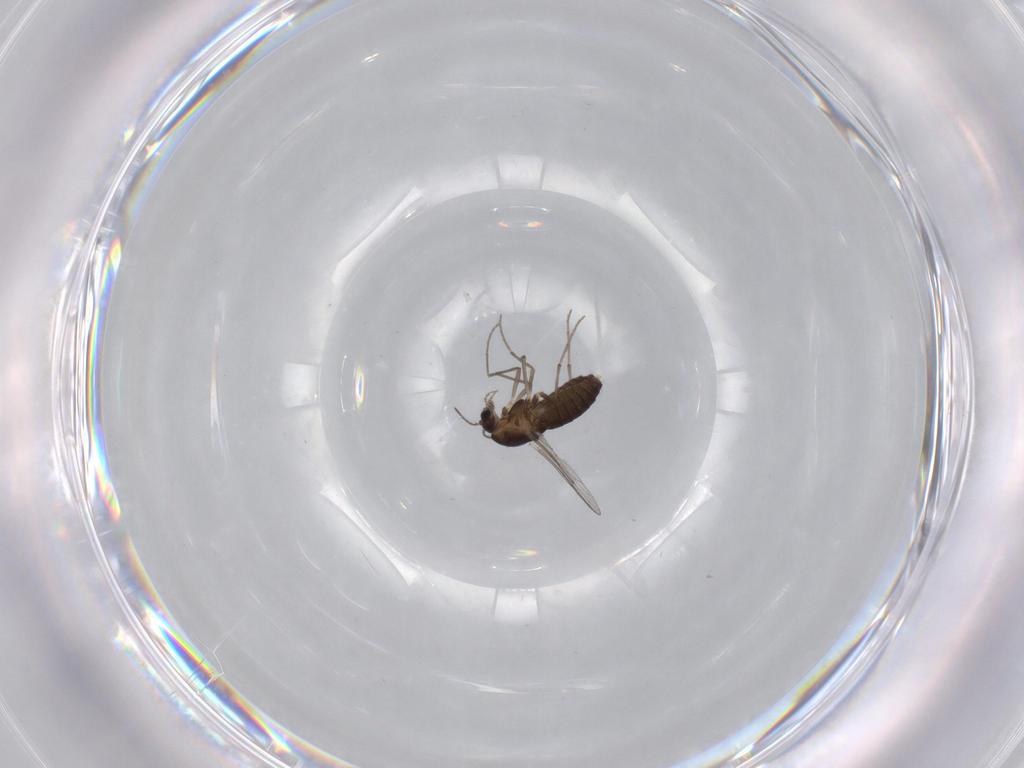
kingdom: Animalia
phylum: Arthropoda
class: Insecta
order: Diptera
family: Chironomidae
